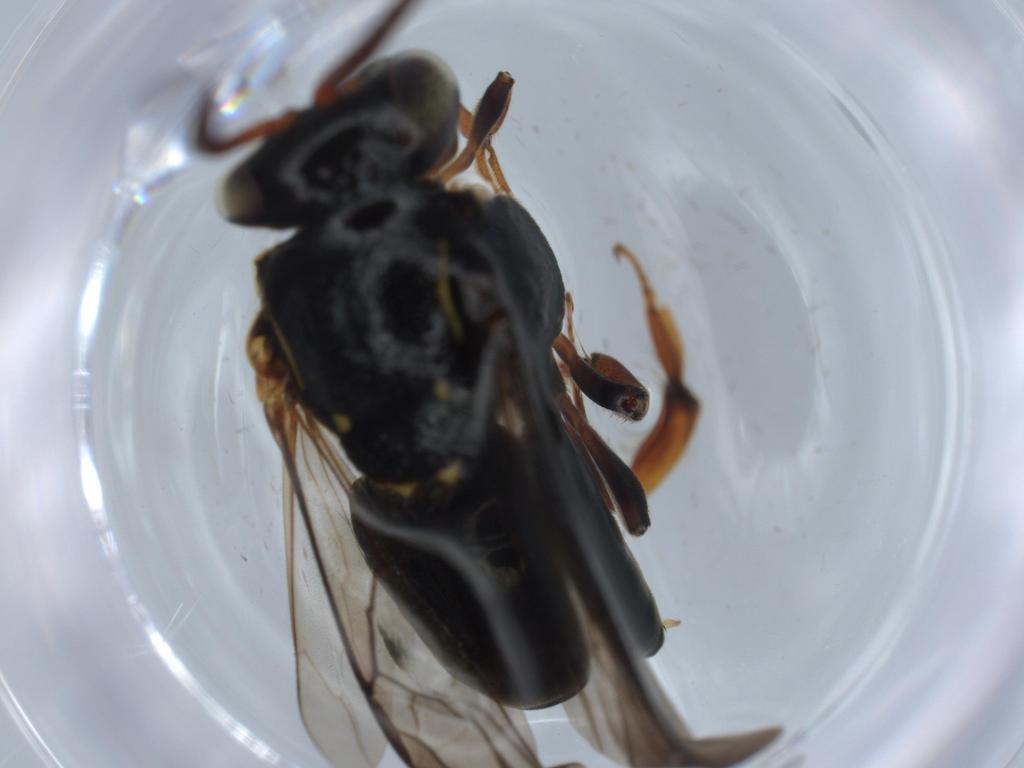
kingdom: Animalia
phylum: Arthropoda
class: Insecta
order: Hymenoptera
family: Apidae
